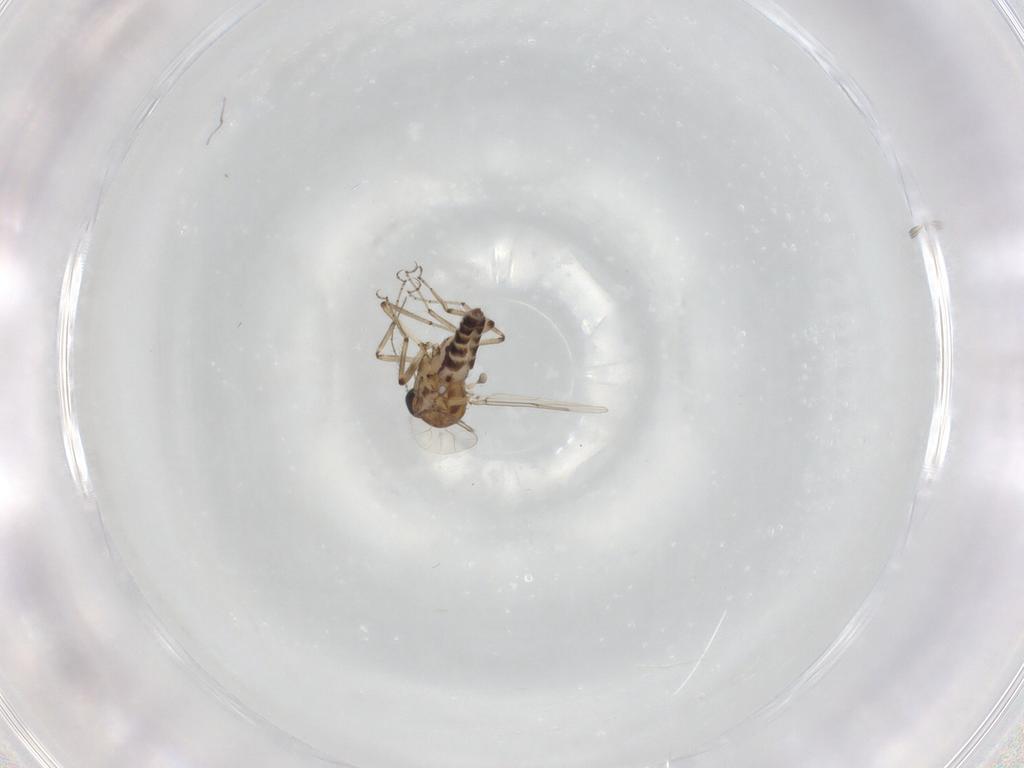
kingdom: Animalia
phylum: Arthropoda
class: Insecta
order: Diptera
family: Ceratopogonidae
